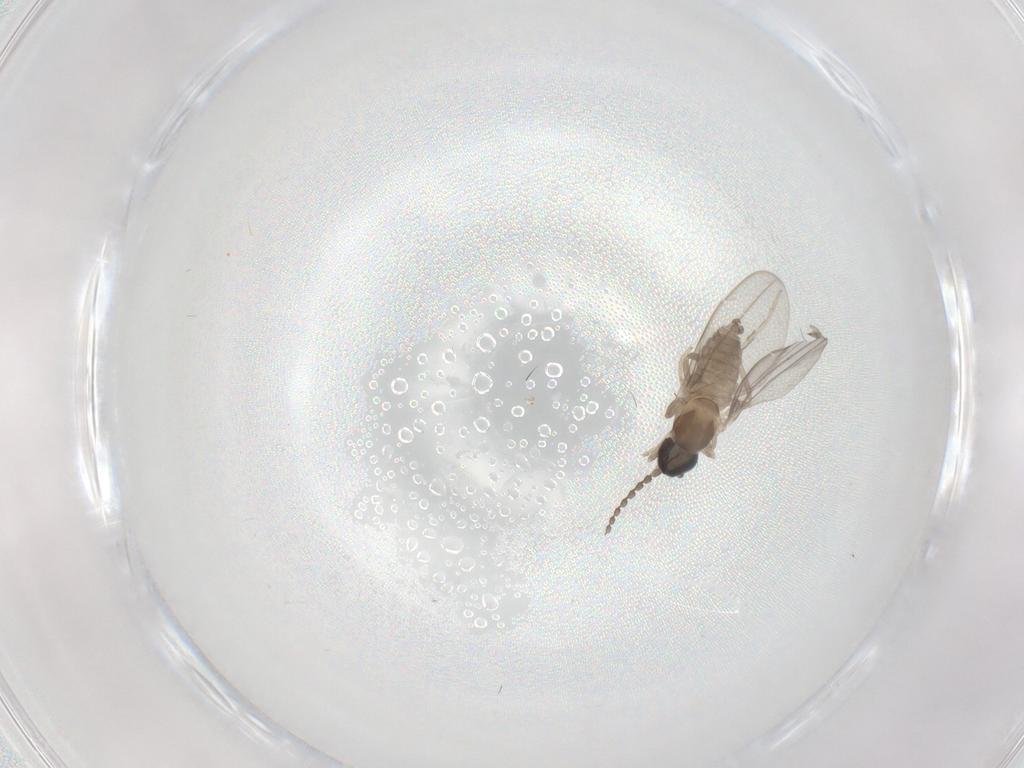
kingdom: Animalia
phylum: Arthropoda
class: Insecta
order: Diptera
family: Cecidomyiidae
